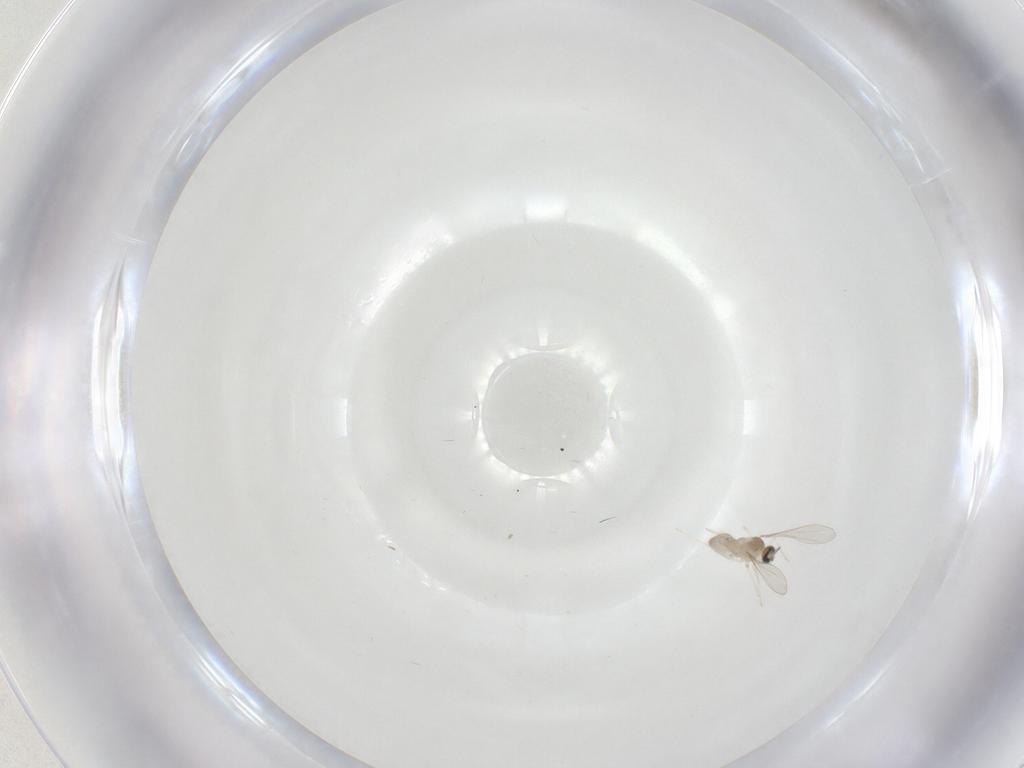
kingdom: Animalia
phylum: Arthropoda
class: Insecta
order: Diptera
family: Cecidomyiidae
